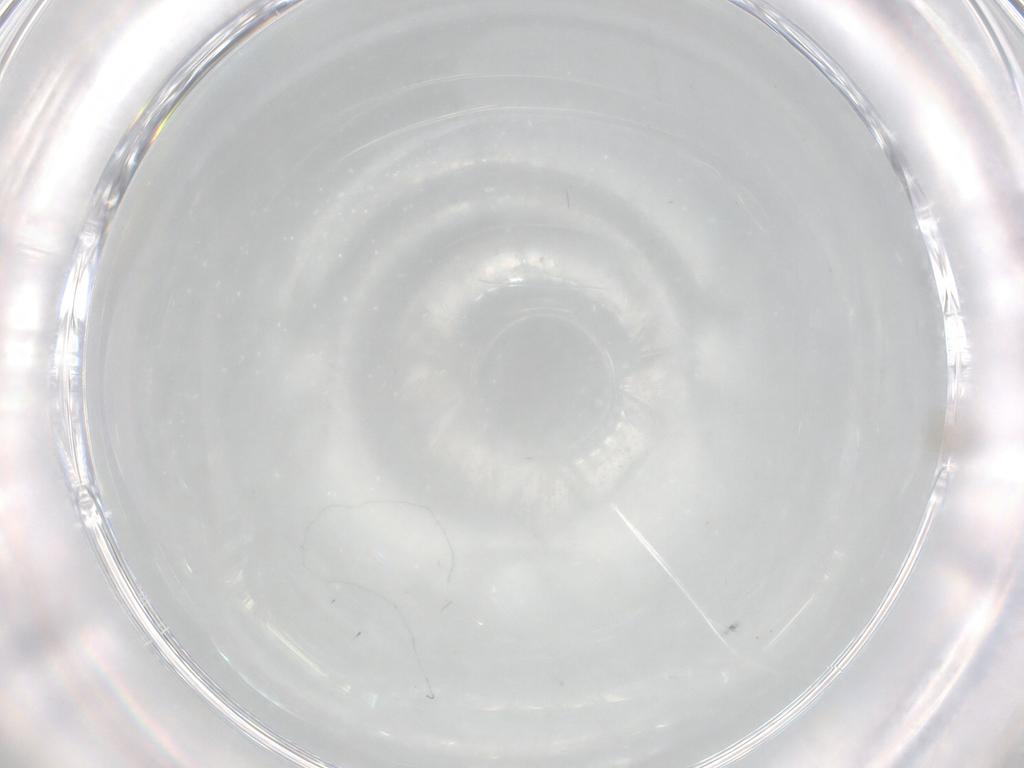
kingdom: Animalia
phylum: Arthropoda
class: Insecta
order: Diptera
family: Cecidomyiidae
